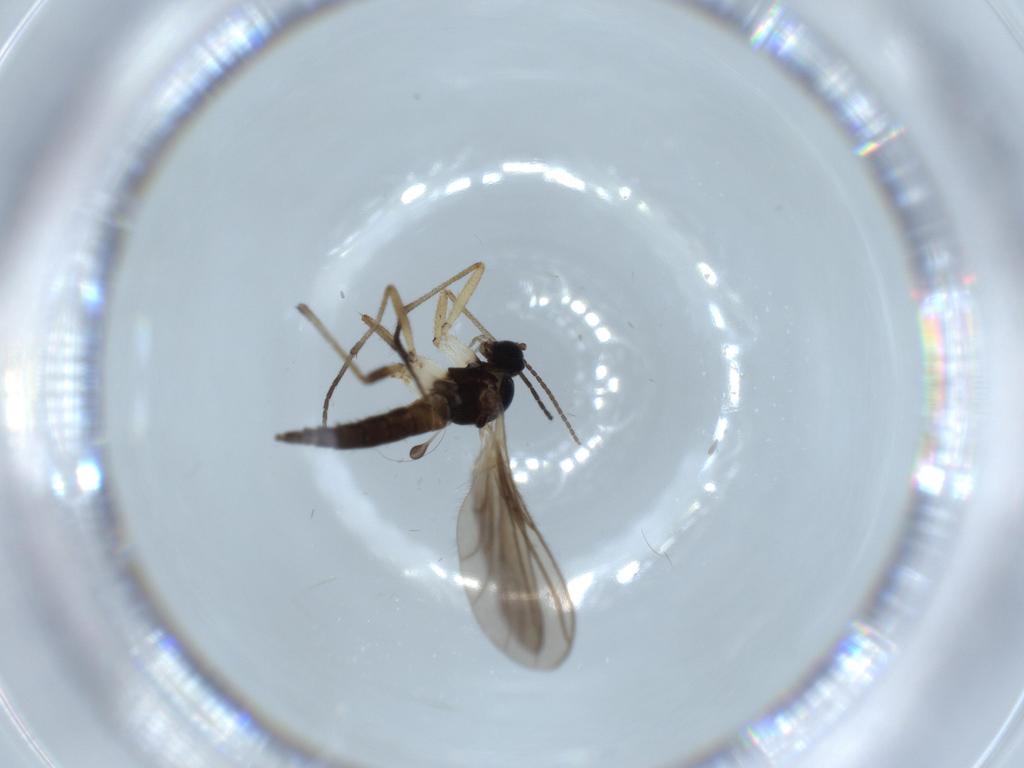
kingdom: Animalia
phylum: Arthropoda
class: Insecta
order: Diptera
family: Sciaridae
